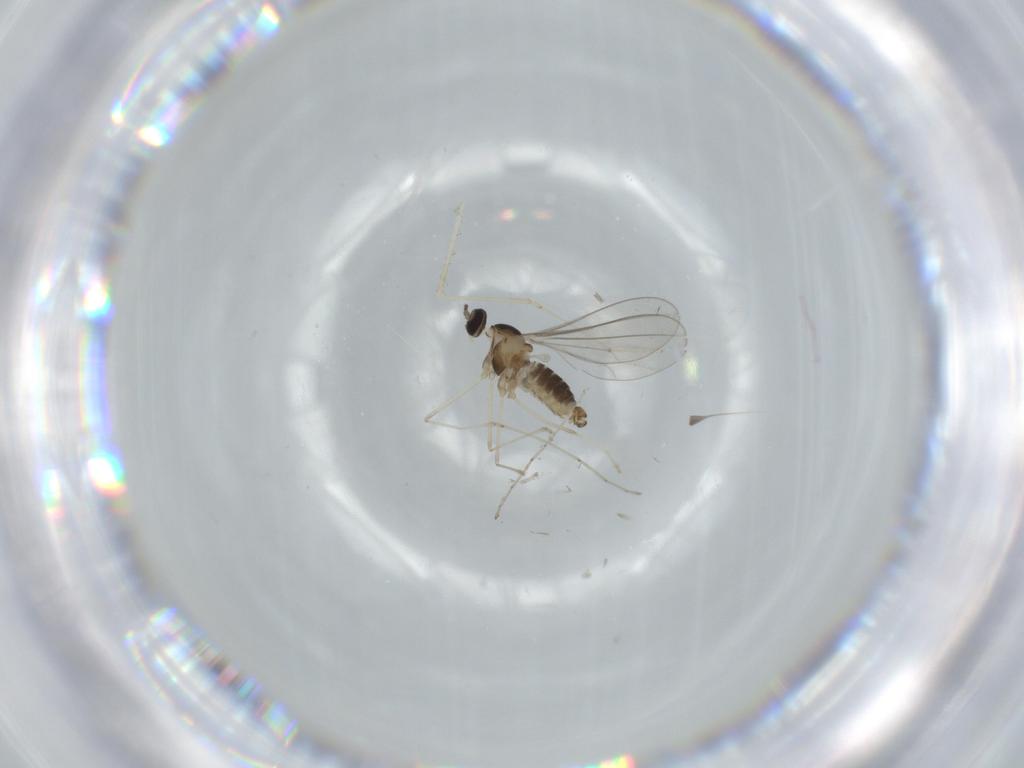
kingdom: Animalia
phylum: Arthropoda
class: Insecta
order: Diptera
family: Cecidomyiidae
